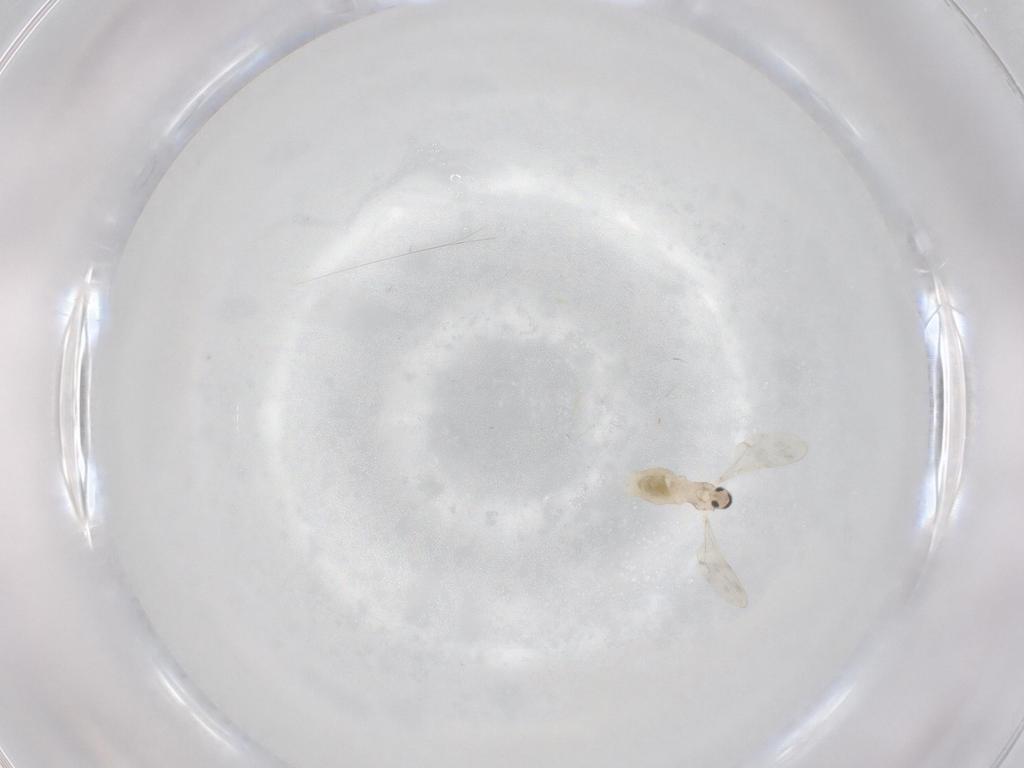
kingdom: Animalia
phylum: Arthropoda
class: Insecta
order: Diptera
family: Cecidomyiidae
